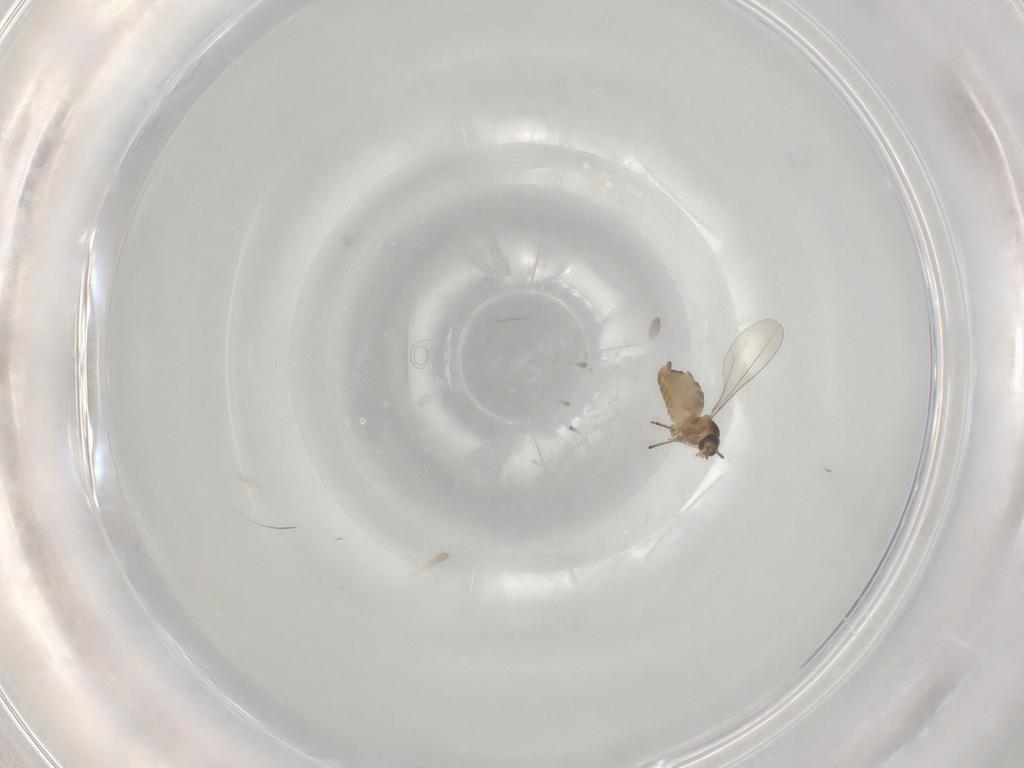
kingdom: Animalia
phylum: Arthropoda
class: Insecta
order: Diptera
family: Cecidomyiidae
